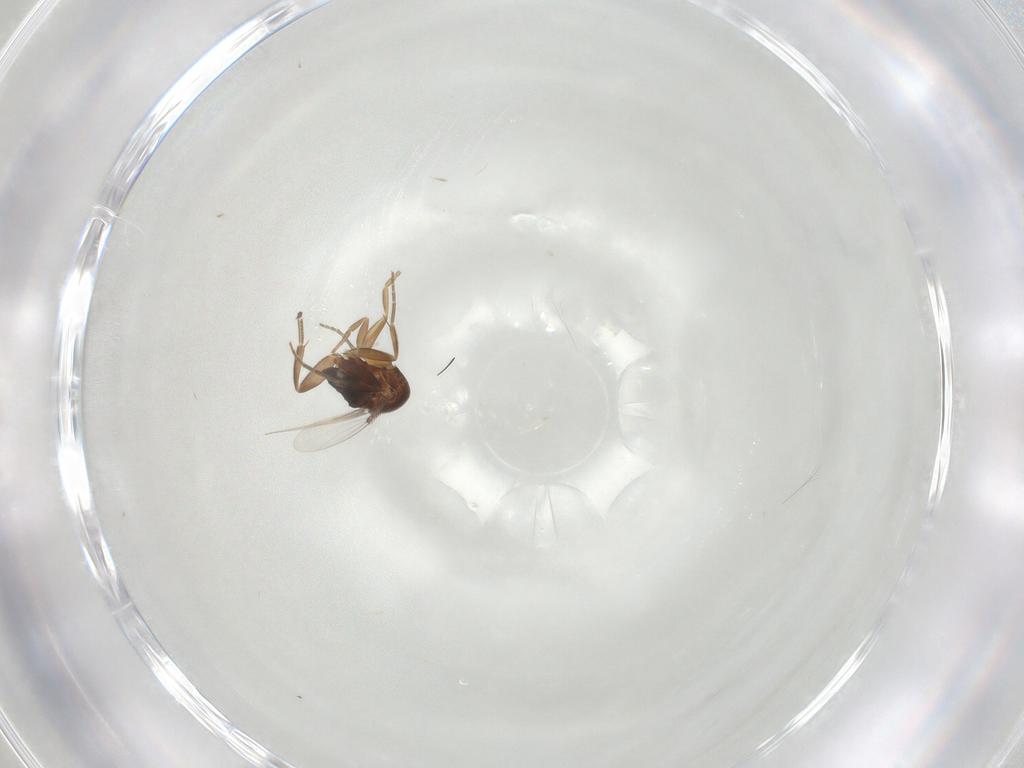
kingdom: Animalia
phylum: Arthropoda
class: Insecta
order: Diptera
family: Phoridae
